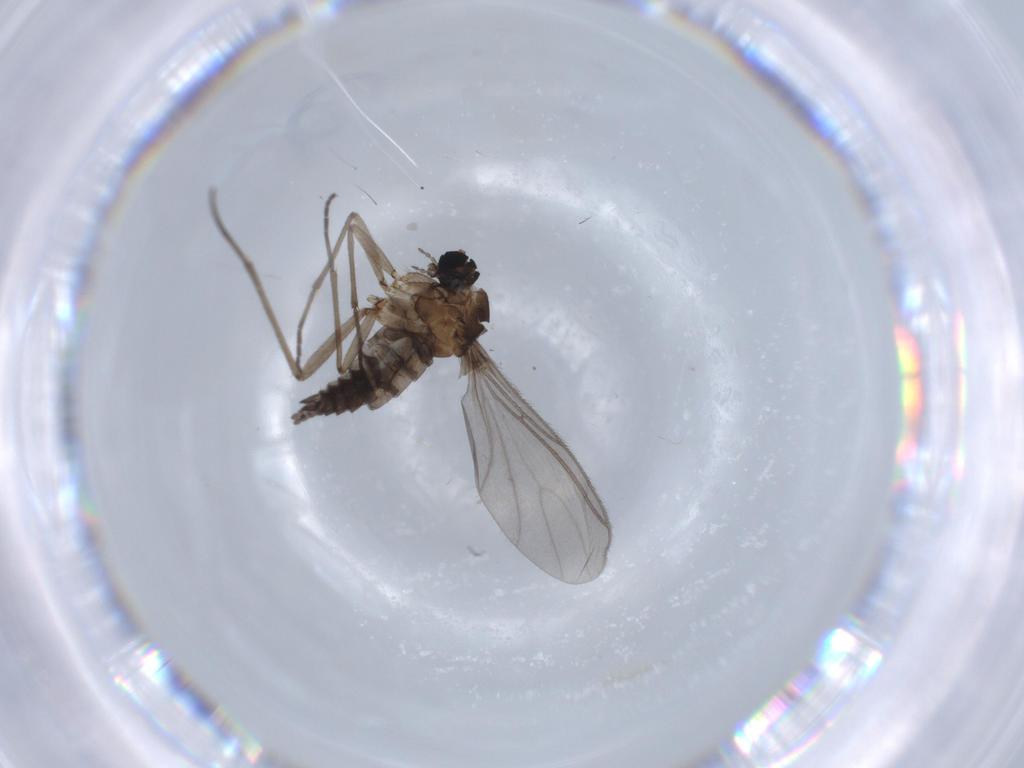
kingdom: Animalia
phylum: Arthropoda
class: Insecta
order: Diptera
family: Sciaridae
